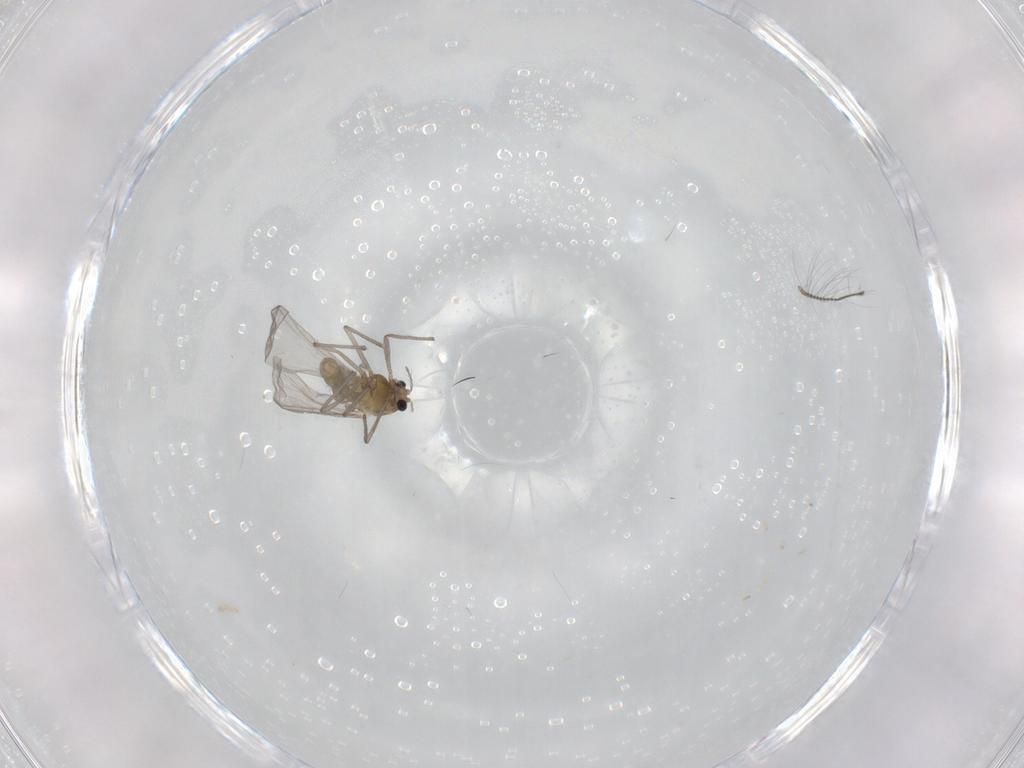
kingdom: Animalia
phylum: Arthropoda
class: Insecta
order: Diptera
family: Chironomidae
